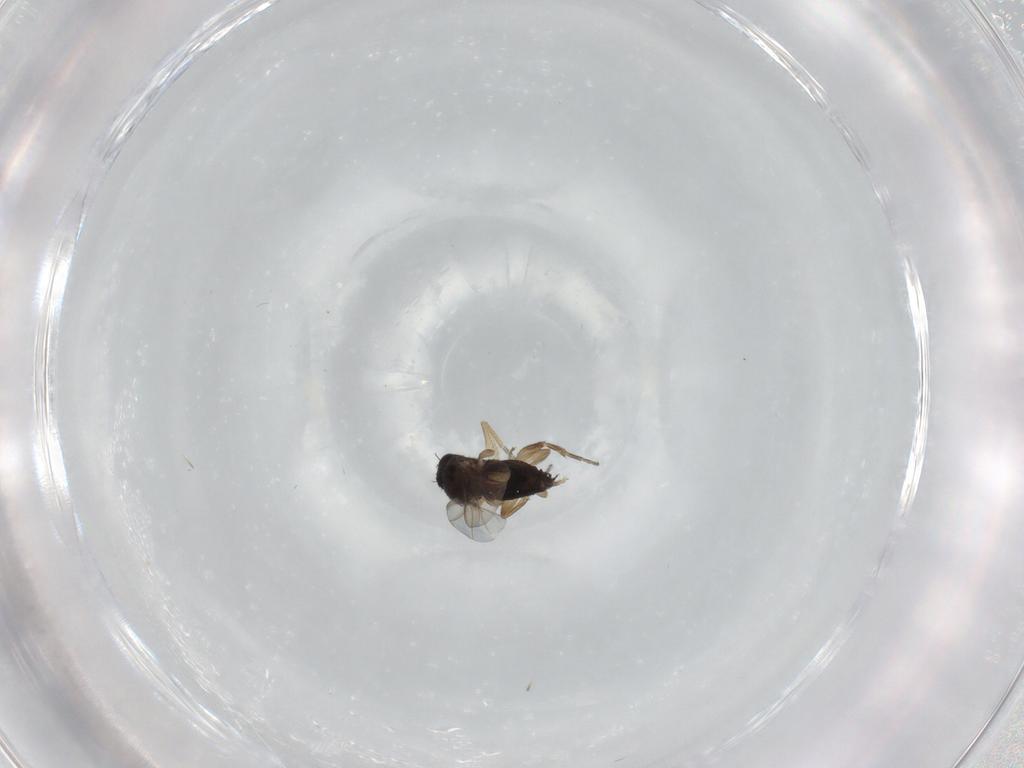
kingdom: Animalia
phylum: Arthropoda
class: Insecta
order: Diptera
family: Phoridae
